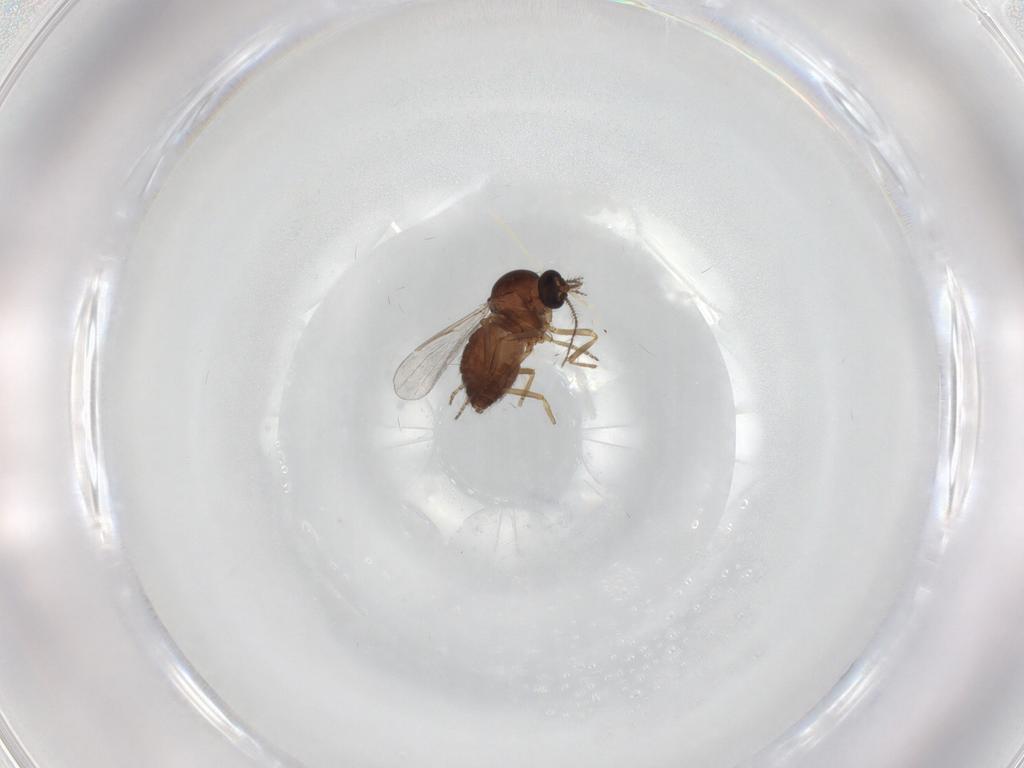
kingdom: Animalia
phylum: Arthropoda
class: Insecta
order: Diptera
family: Ceratopogonidae
